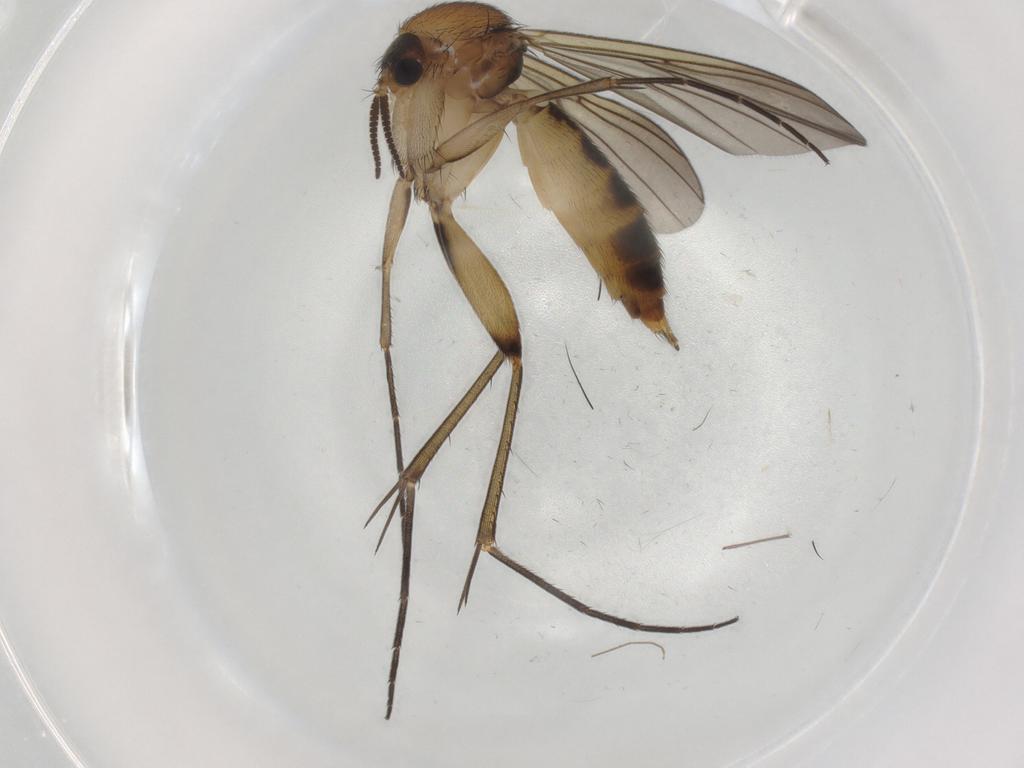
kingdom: Animalia
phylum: Arthropoda
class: Insecta
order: Diptera
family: Mycetophilidae
